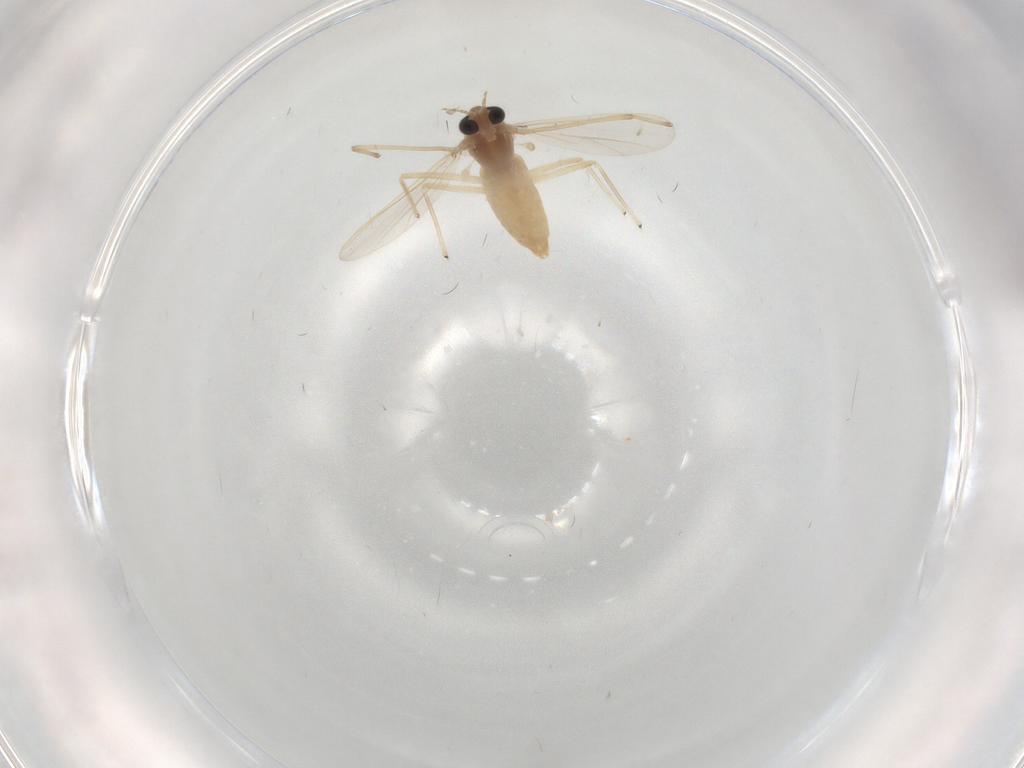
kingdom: Animalia
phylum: Arthropoda
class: Insecta
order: Diptera
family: Chironomidae
